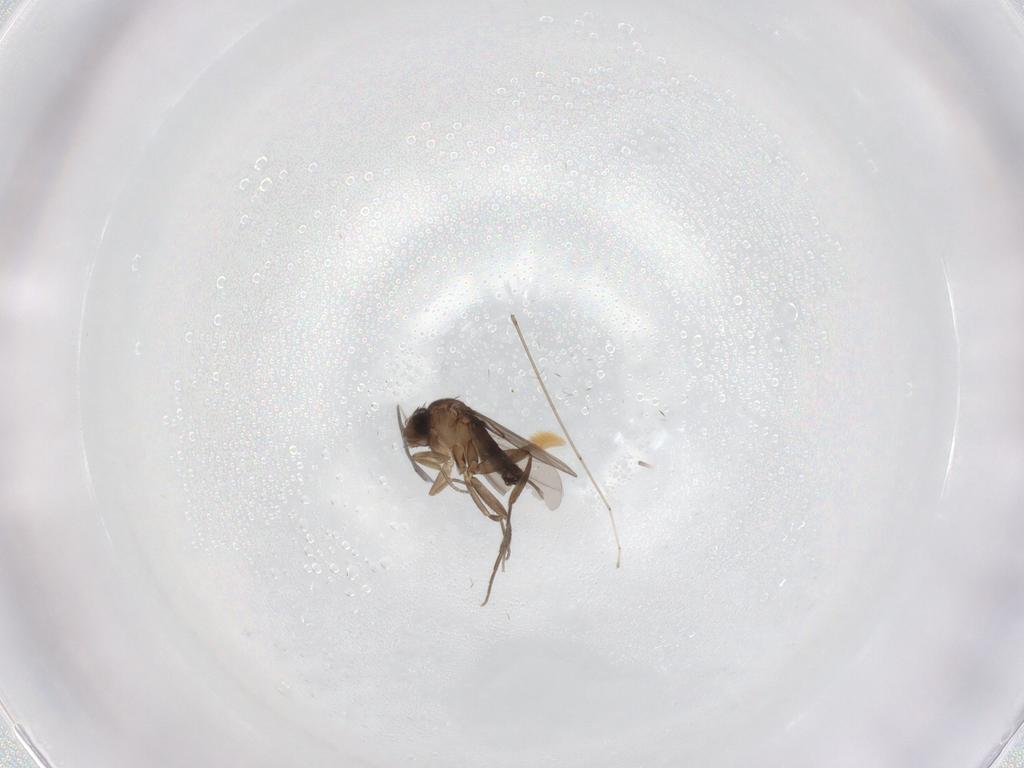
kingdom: Animalia
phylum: Arthropoda
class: Insecta
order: Diptera
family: Phoridae
